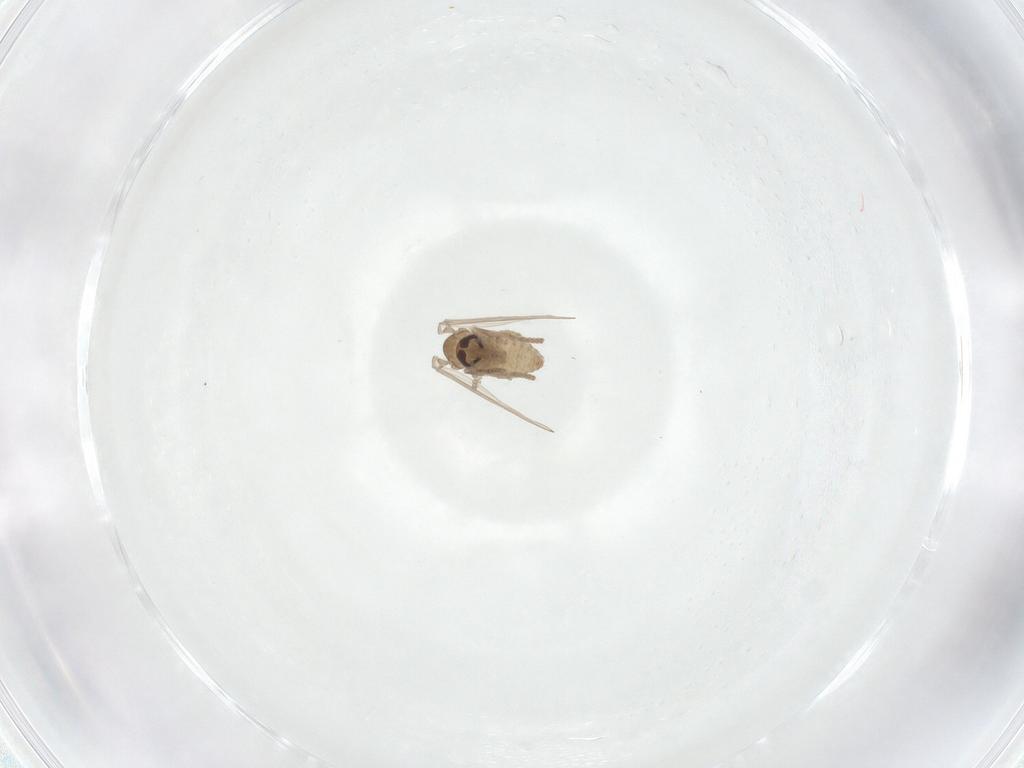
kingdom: Animalia
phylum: Arthropoda
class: Insecta
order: Diptera
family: Psychodidae
